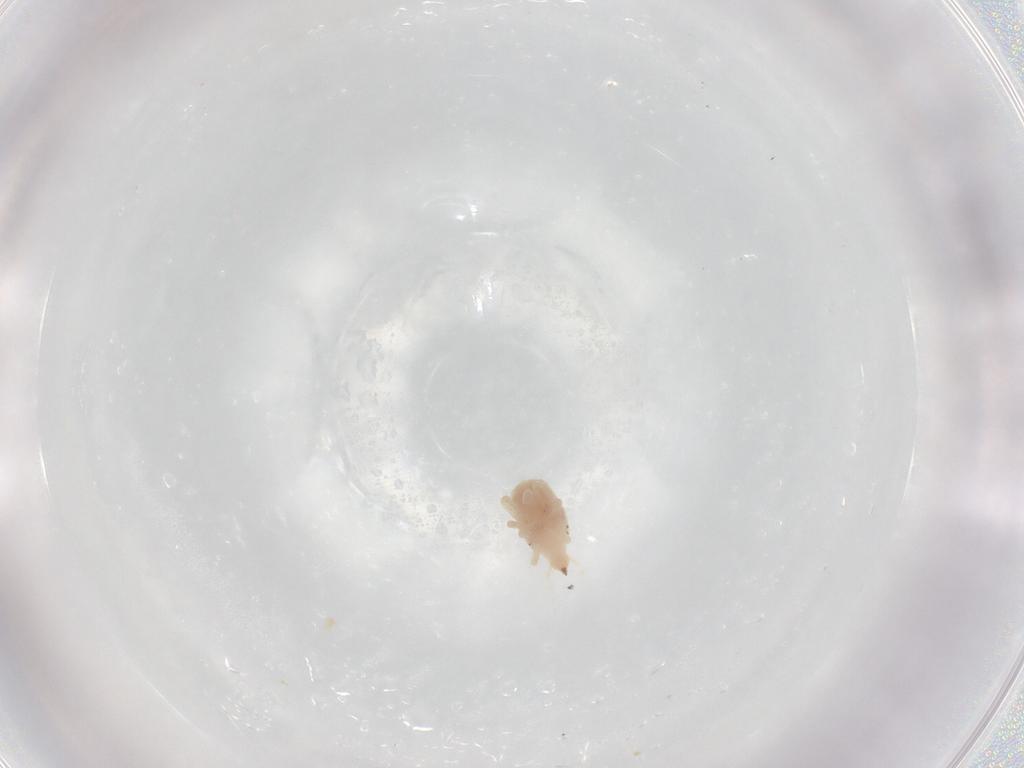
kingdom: Animalia
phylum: Arthropoda
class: Arachnida
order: Trombidiformes
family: Bdellidae
